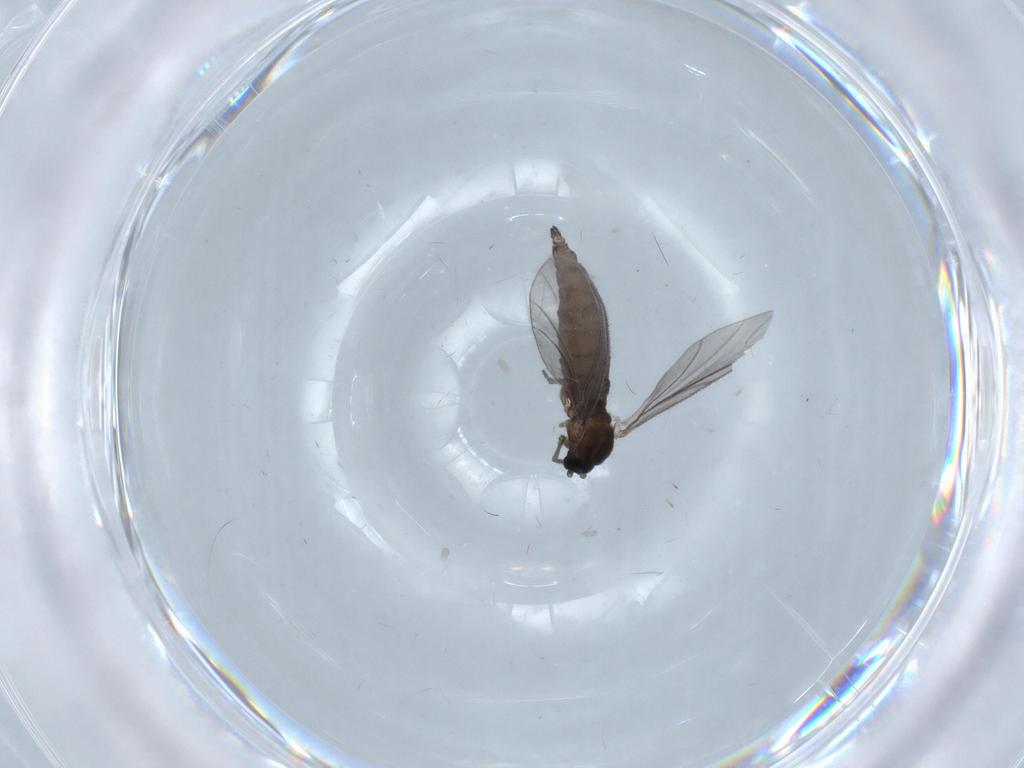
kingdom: Animalia
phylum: Arthropoda
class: Insecta
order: Diptera
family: Sciaridae
